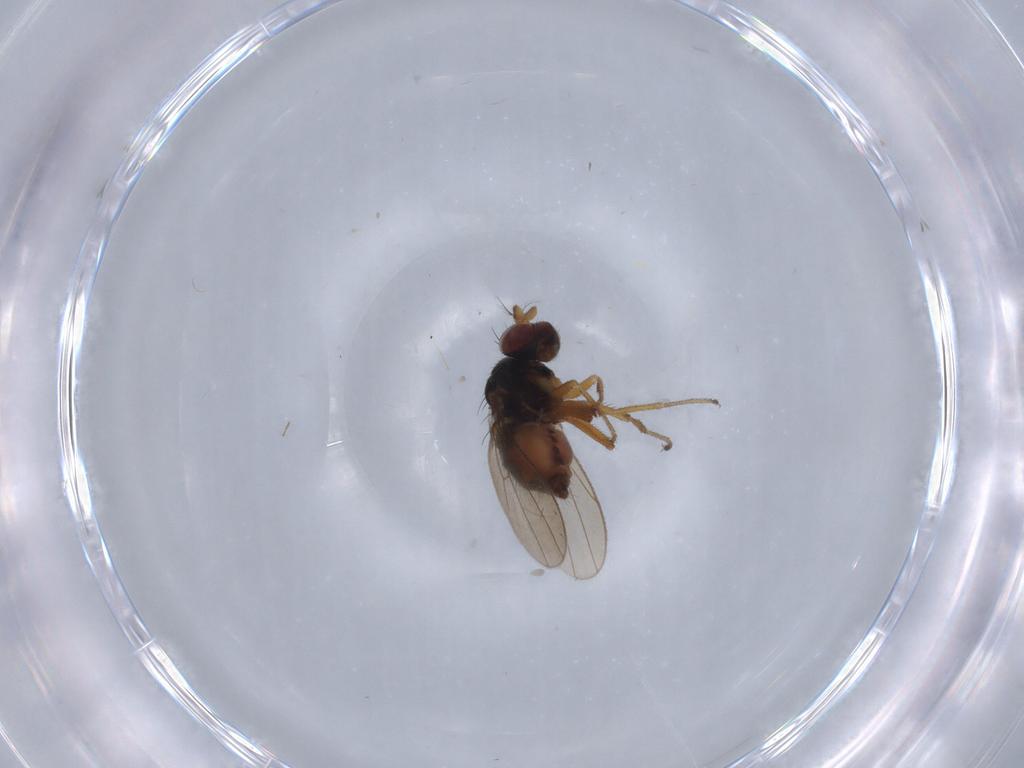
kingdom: Animalia
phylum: Arthropoda
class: Insecta
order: Diptera
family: Ephydridae
